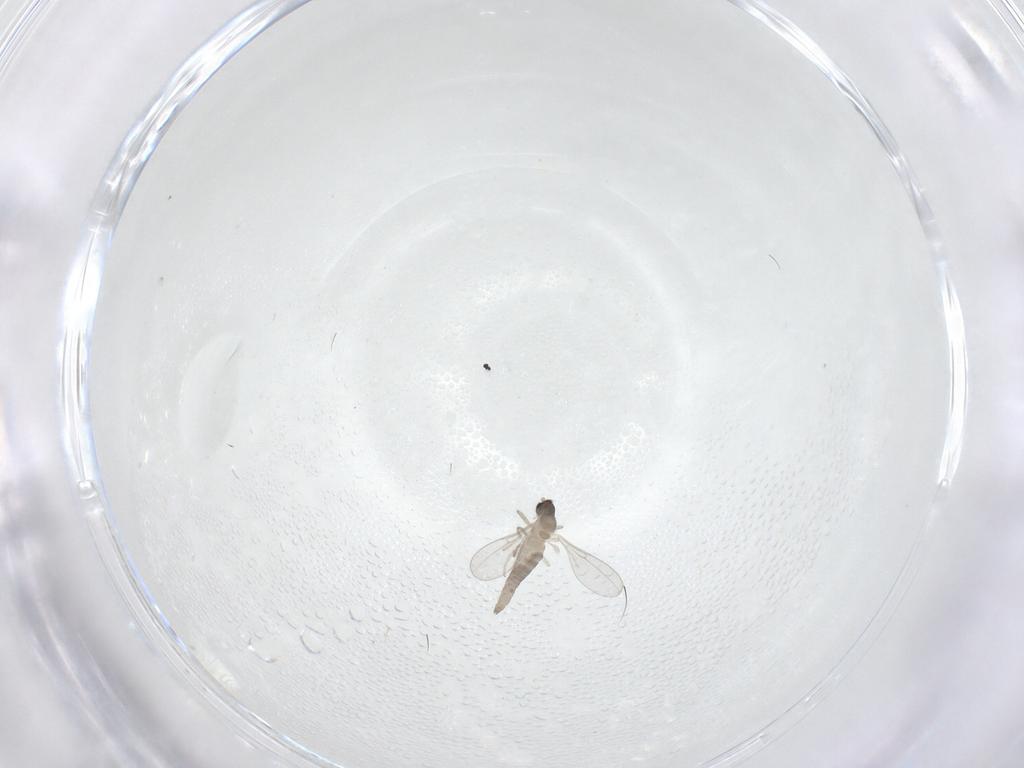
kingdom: Animalia
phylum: Arthropoda
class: Insecta
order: Diptera
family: Cecidomyiidae
